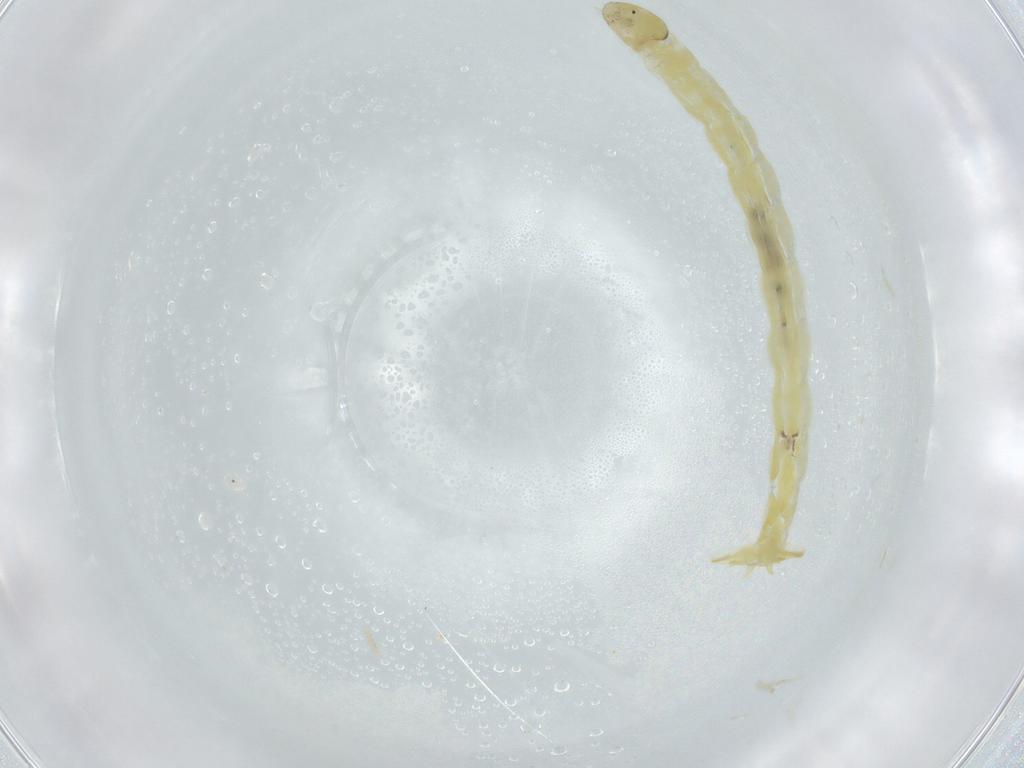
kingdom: Animalia
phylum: Arthropoda
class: Insecta
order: Diptera
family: Chironomidae
